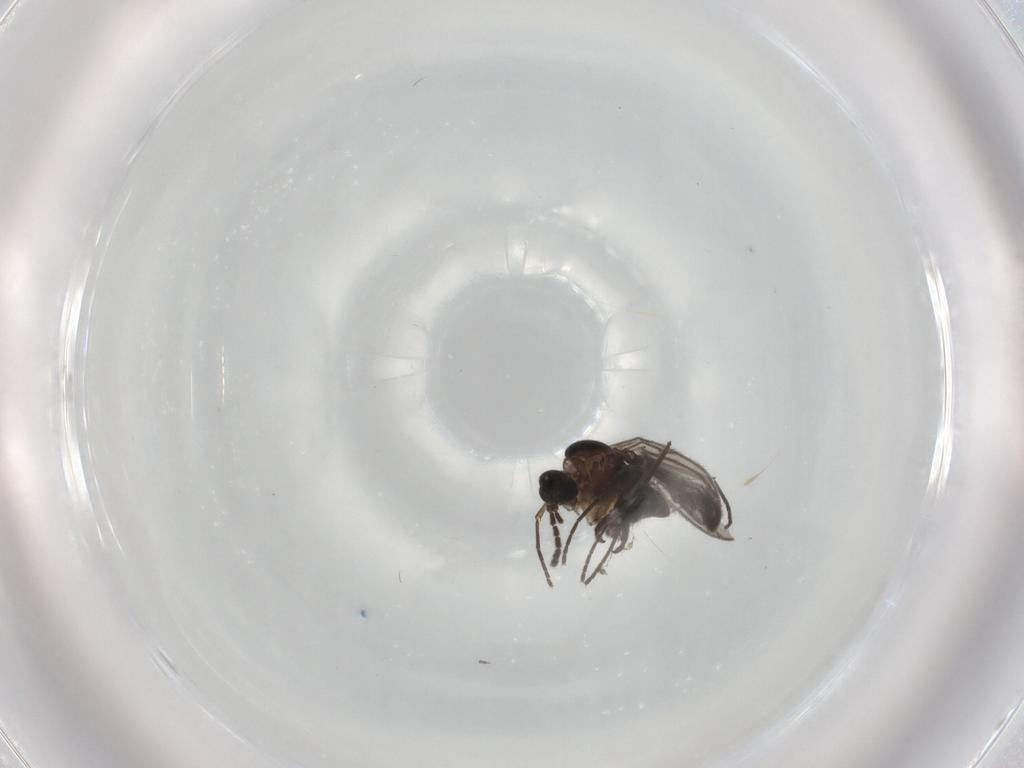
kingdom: Animalia
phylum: Arthropoda
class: Insecta
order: Diptera
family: Sciaridae
